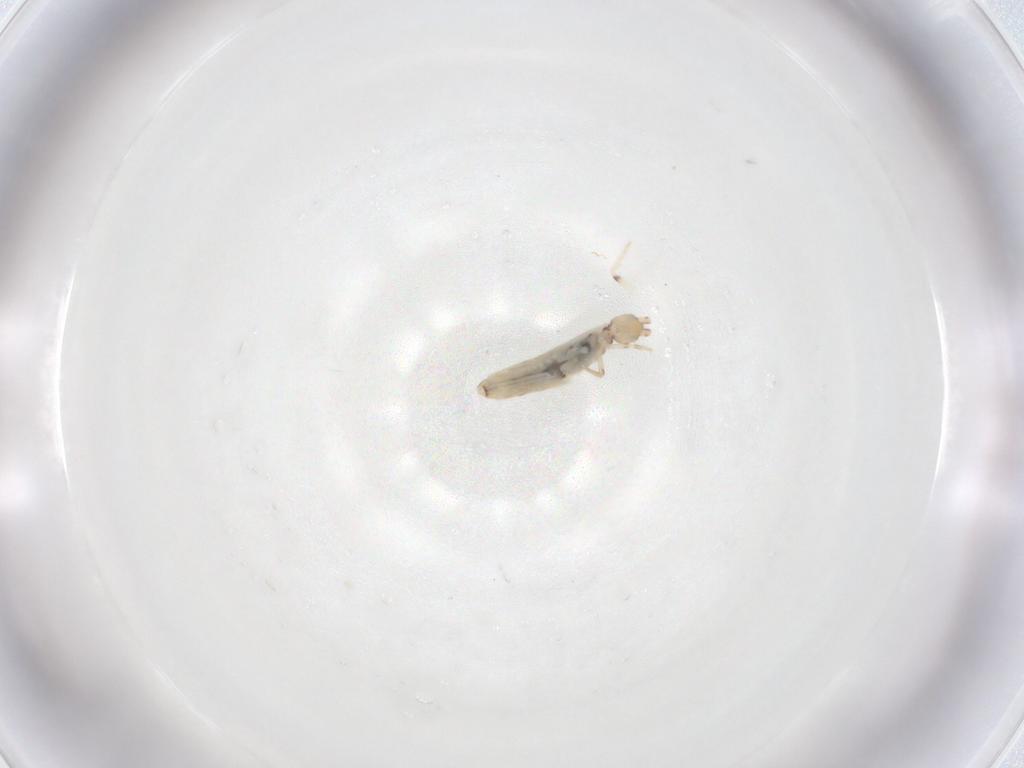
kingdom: Animalia
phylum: Arthropoda
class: Collembola
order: Entomobryomorpha
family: Entomobryidae
